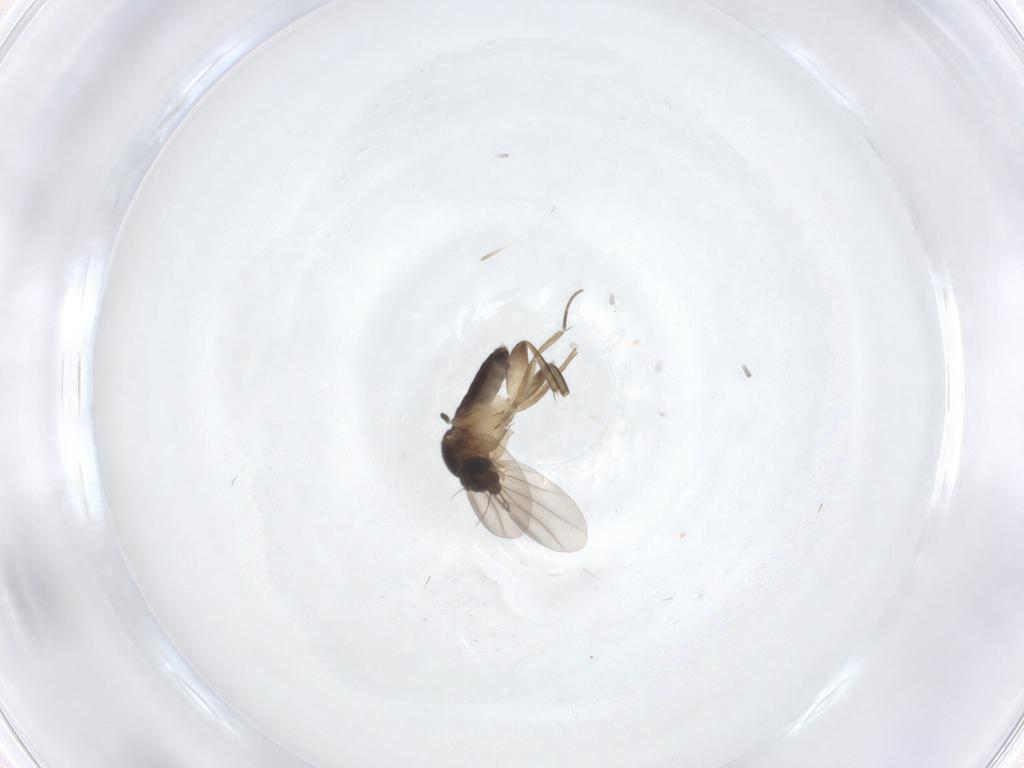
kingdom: Animalia
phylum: Arthropoda
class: Insecta
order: Diptera
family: Phoridae
